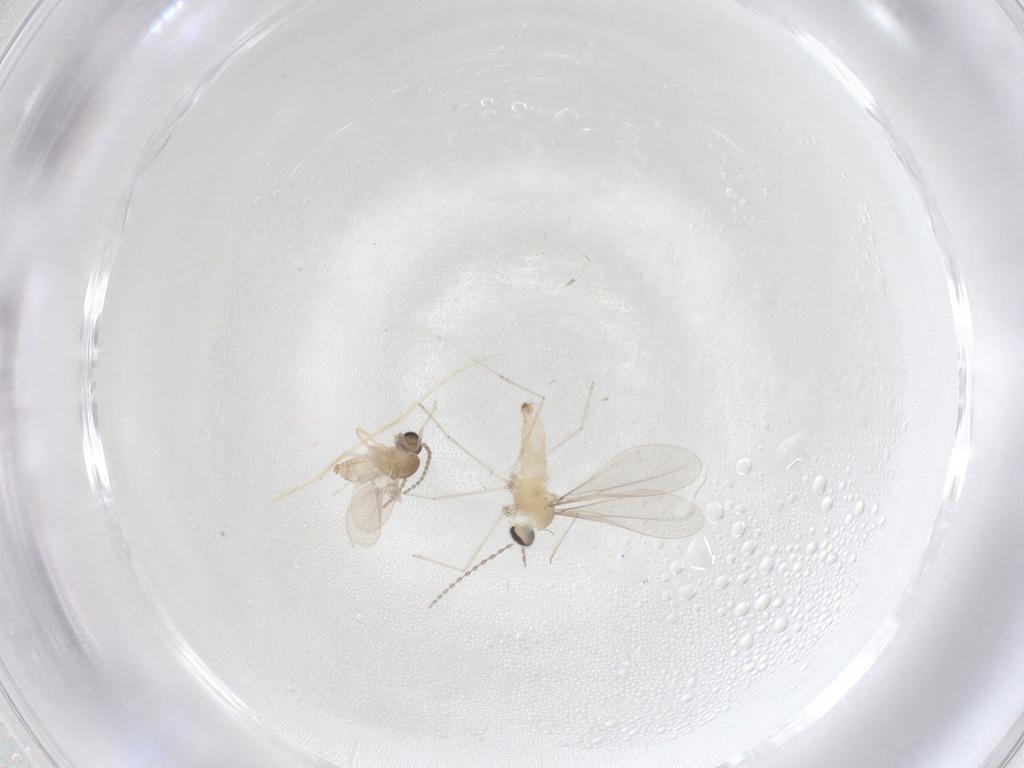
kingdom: Animalia
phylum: Arthropoda
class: Insecta
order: Diptera
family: Cecidomyiidae
